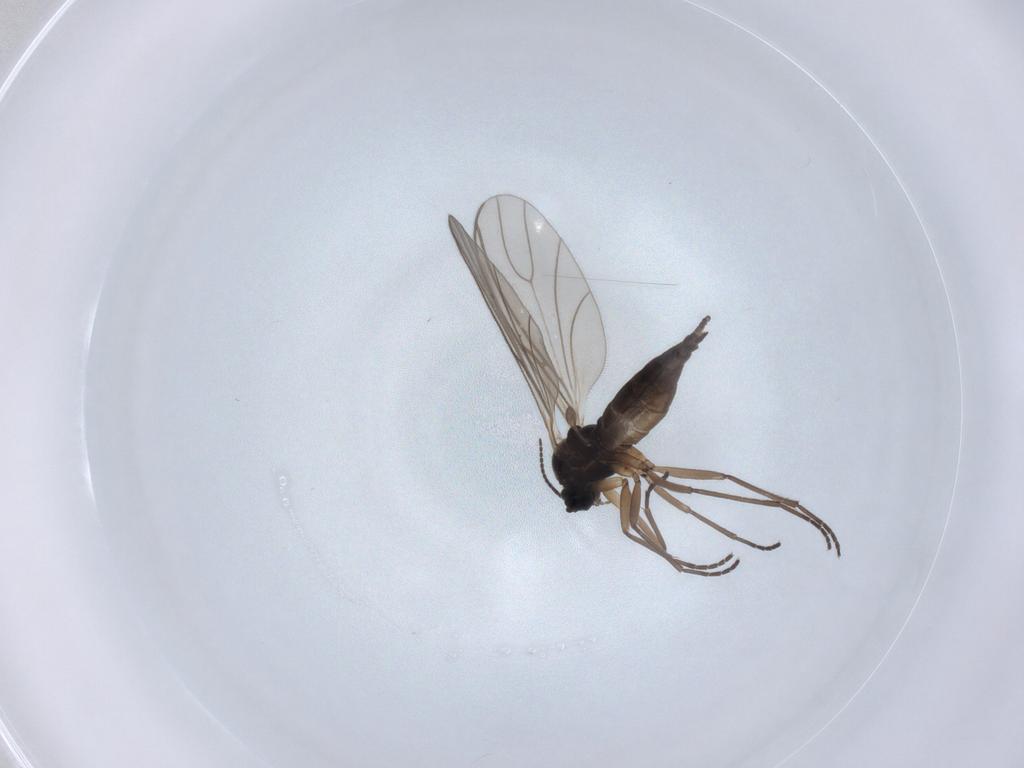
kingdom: Animalia
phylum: Arthropoda
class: Insecta
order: Diptera
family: Sciaridae
